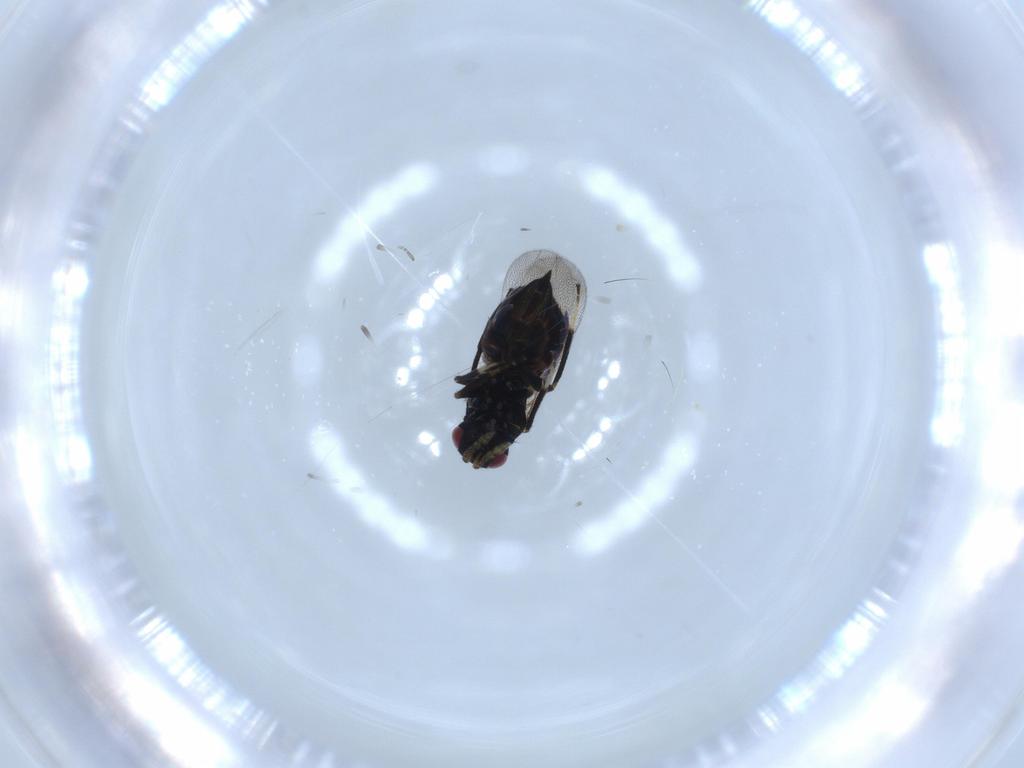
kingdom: Animalia
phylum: Arthropoda
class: Insecta
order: Hymenoptera
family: Eulophidae
